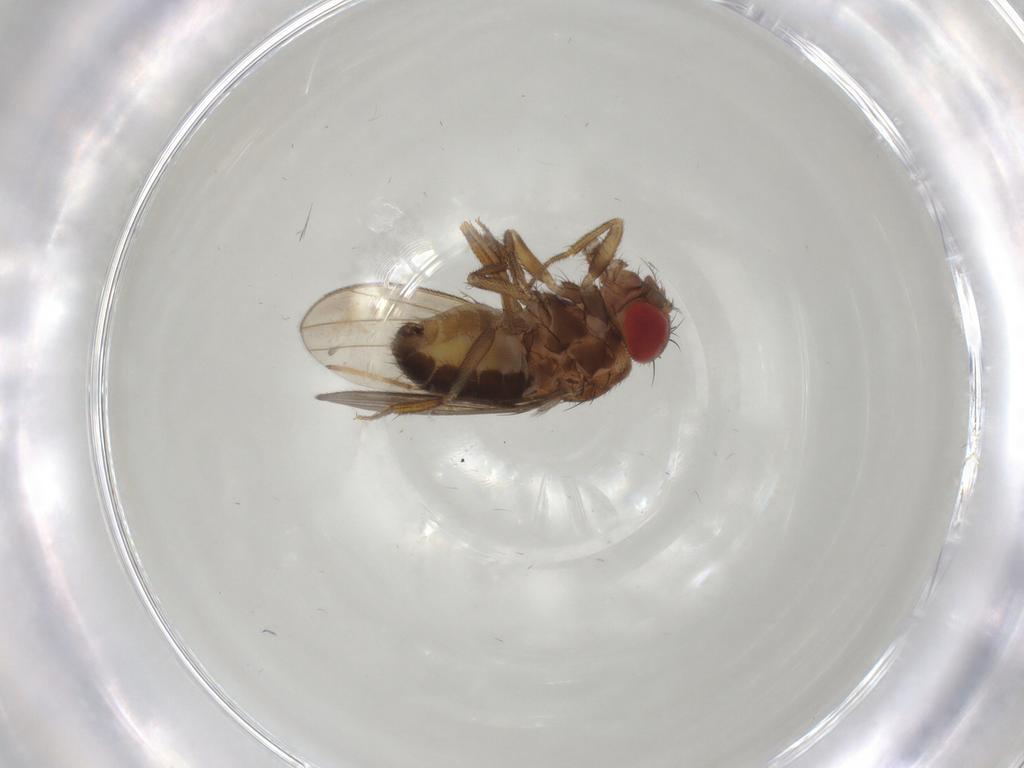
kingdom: Animalia
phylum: Arthropoda
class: Insecta
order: Diptera
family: Drosophilidae
